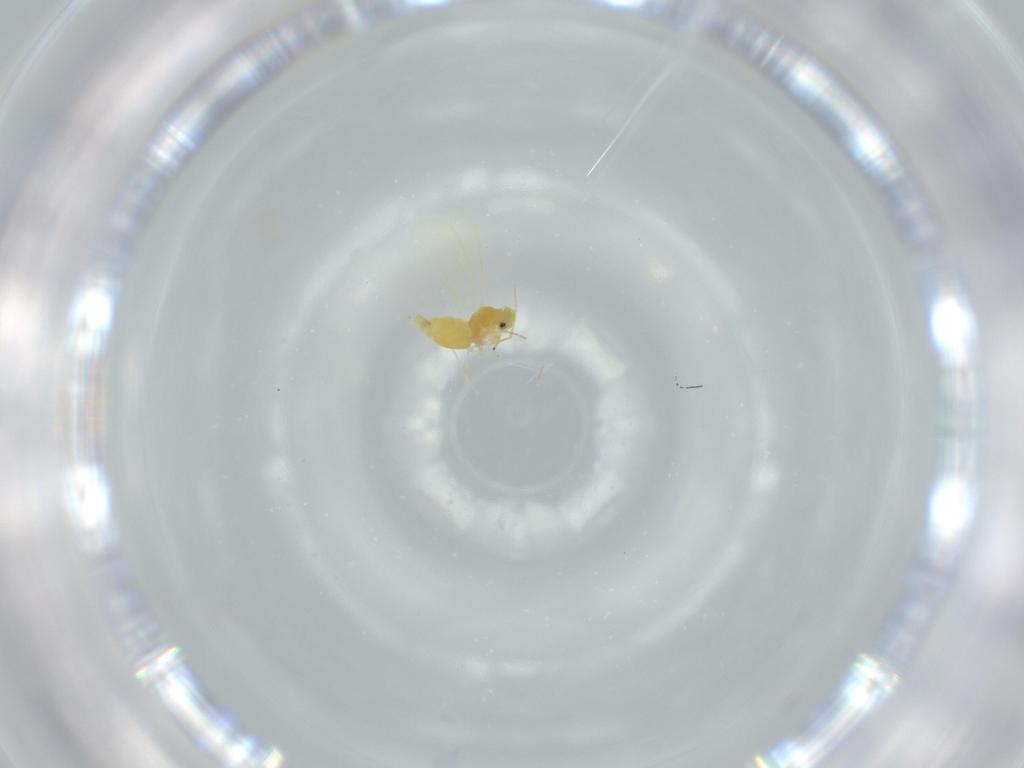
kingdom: Animalia
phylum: Arthropoda
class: Insecta
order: Hemiptera
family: Aleyrodidae
